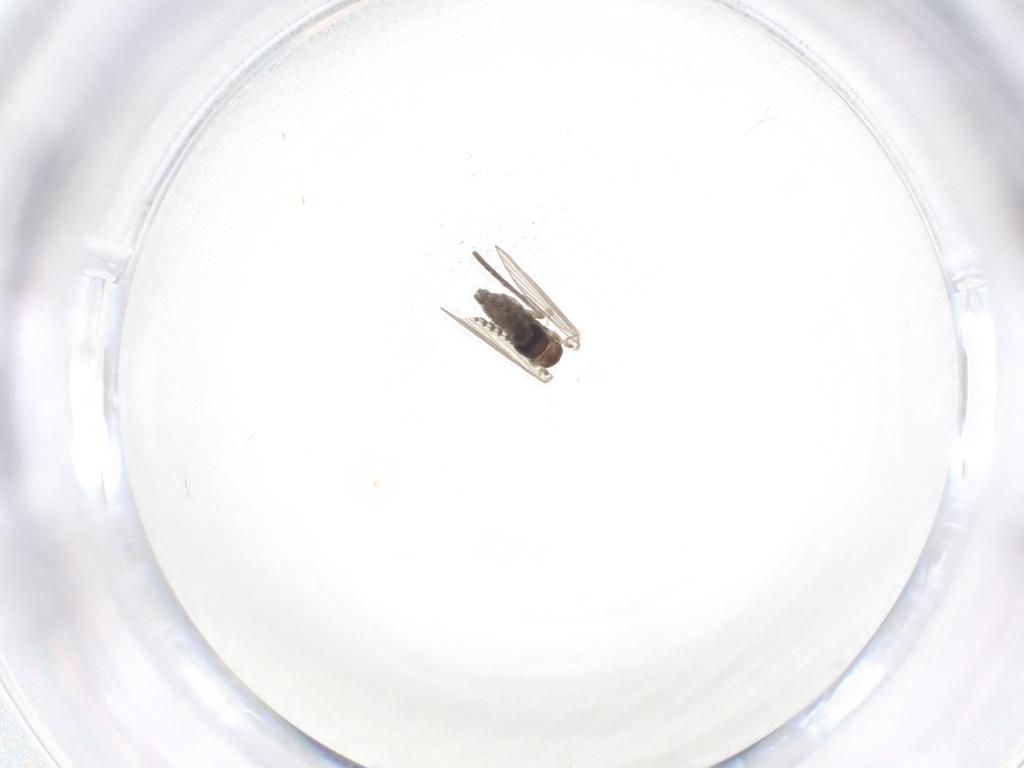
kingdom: Animalia
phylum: Arthropoda
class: Insecta
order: Diptera
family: Psychodidae
